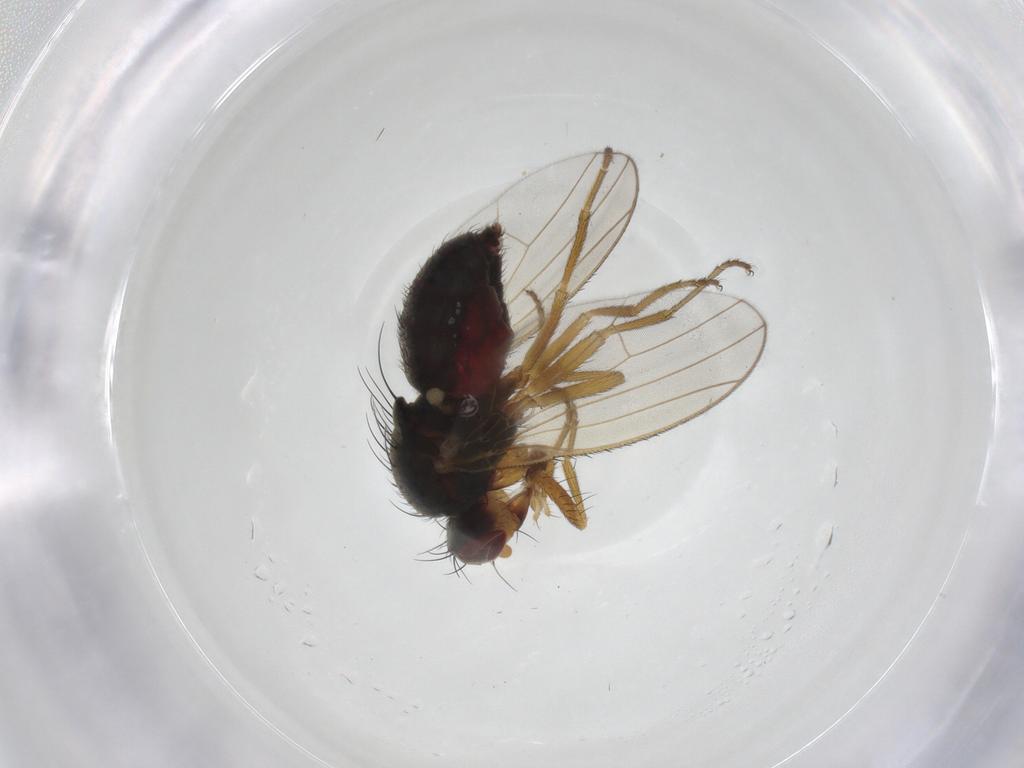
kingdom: Animalia
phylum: Arthropoda
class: Insecta
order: Diptera
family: Heleomyzidae
